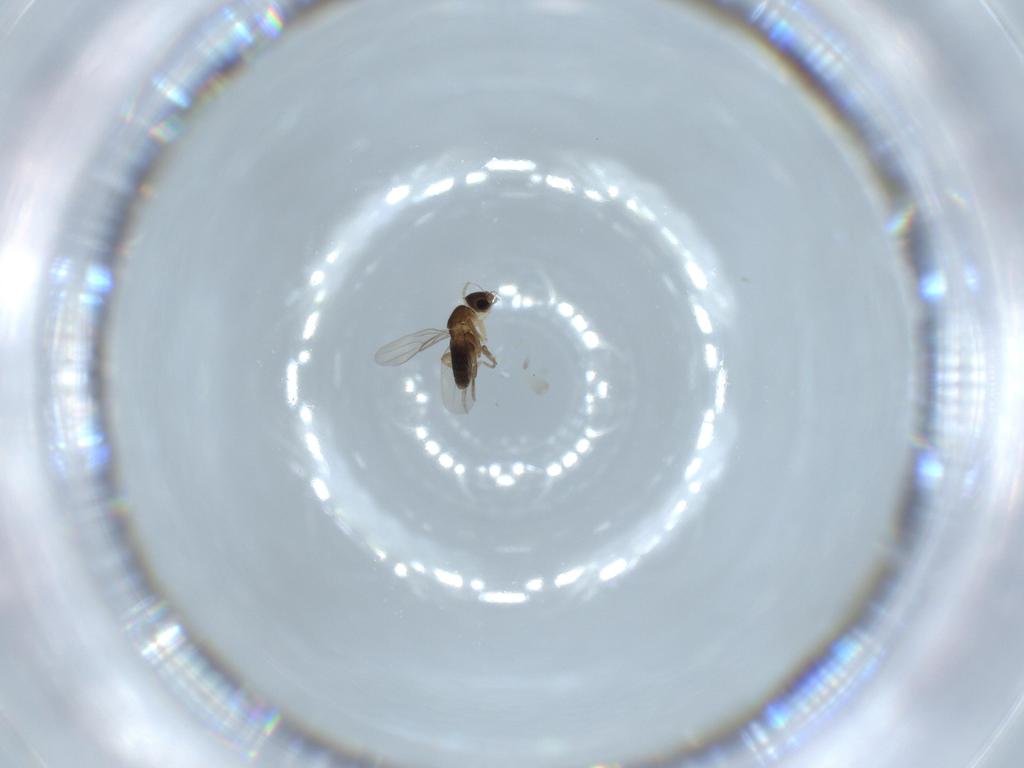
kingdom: Animalia
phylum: Arthropoda
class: Insecta
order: Diptera
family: Phoridae
